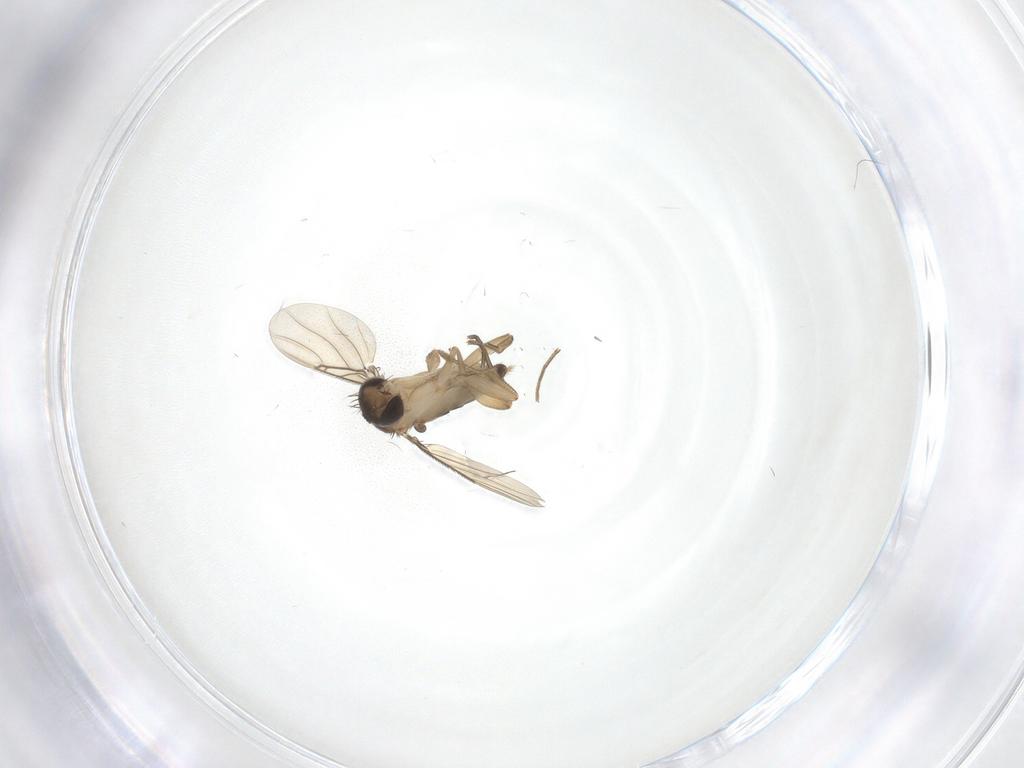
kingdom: Animalia
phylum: Arthropoda
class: Insecta
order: Diptera
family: Phoridae
